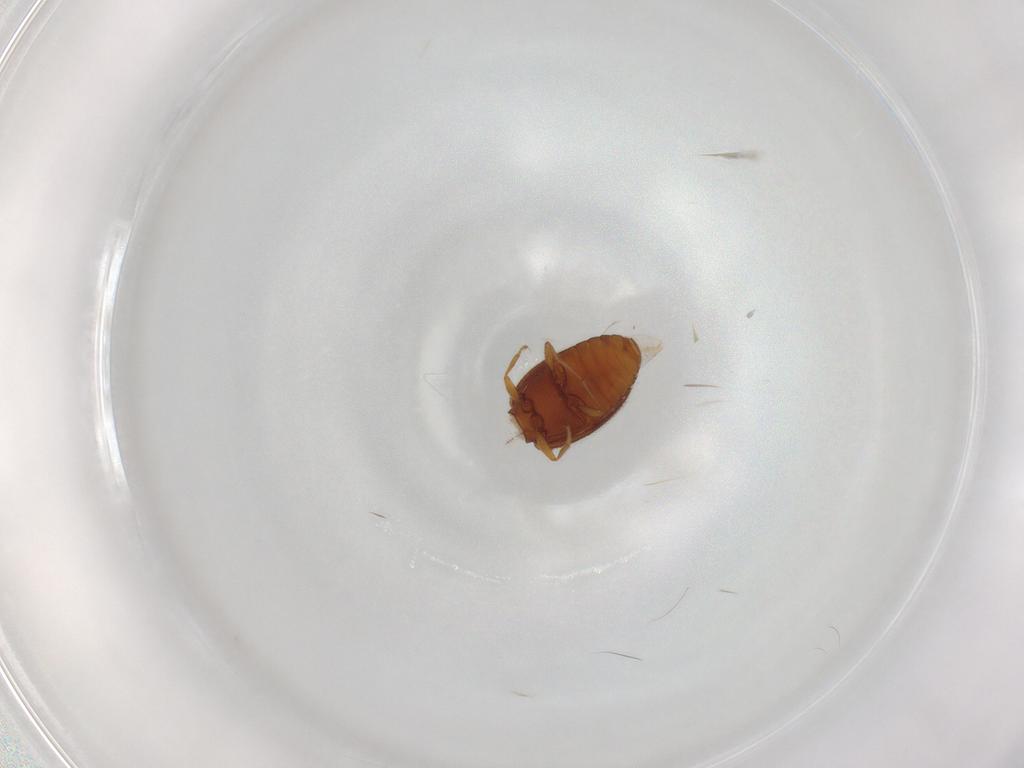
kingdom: Animalia
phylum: Arthropoda
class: Insecta
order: Coleoptera
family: Latridiidae
